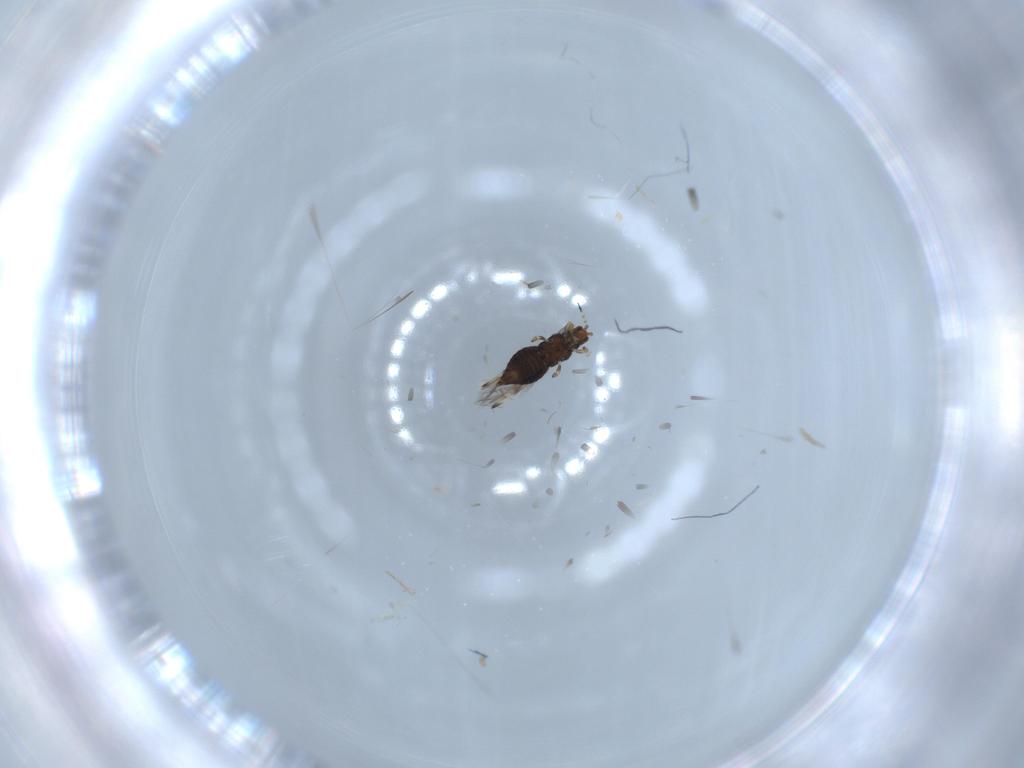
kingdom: Animalia
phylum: Arthropoda
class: Insecta
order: Thysanoptera
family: Thripidae
